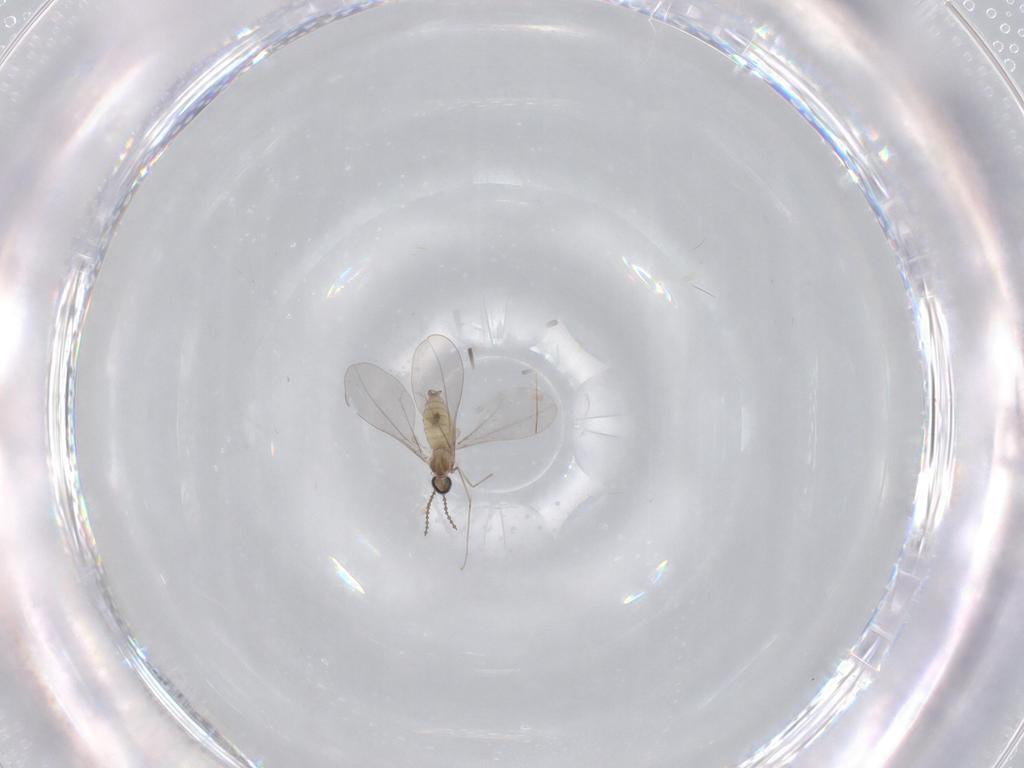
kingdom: Animalia
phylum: Arthropoda
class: Insecta
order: Diptera
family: Cecidomyiidae
